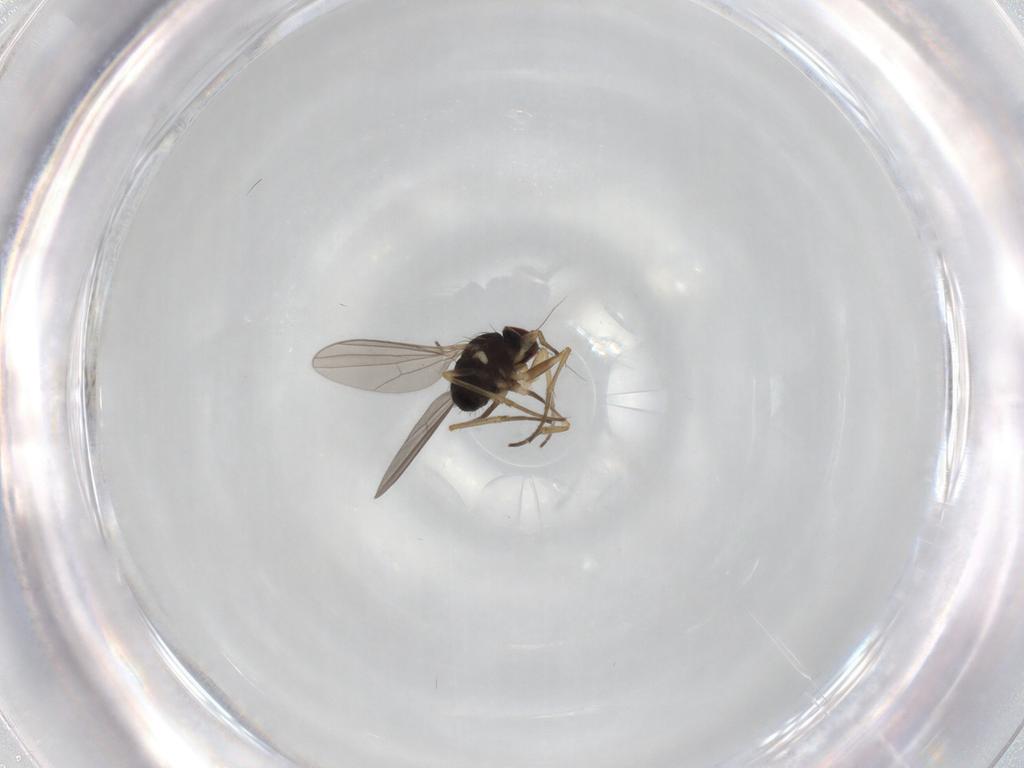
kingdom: Animalia
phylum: Arthropoda
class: Insecta
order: Diptera
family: Dolichopodidae
